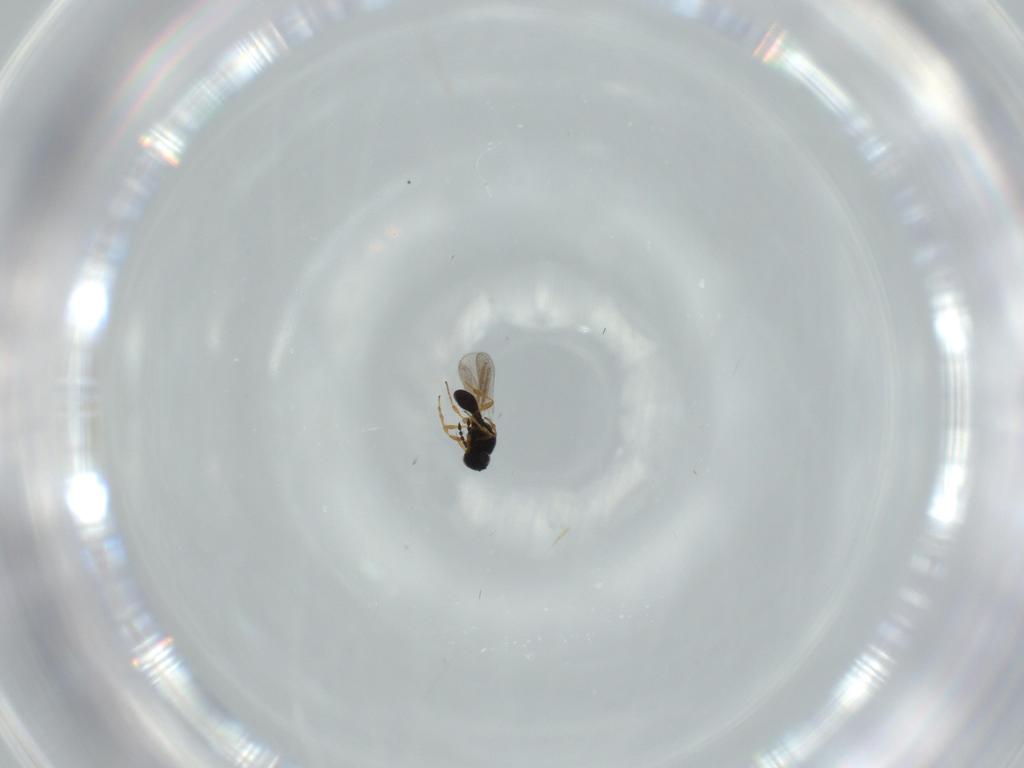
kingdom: Animalia
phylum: Arthropoda
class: Insecta
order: Hymenoptera
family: Platygastridae
